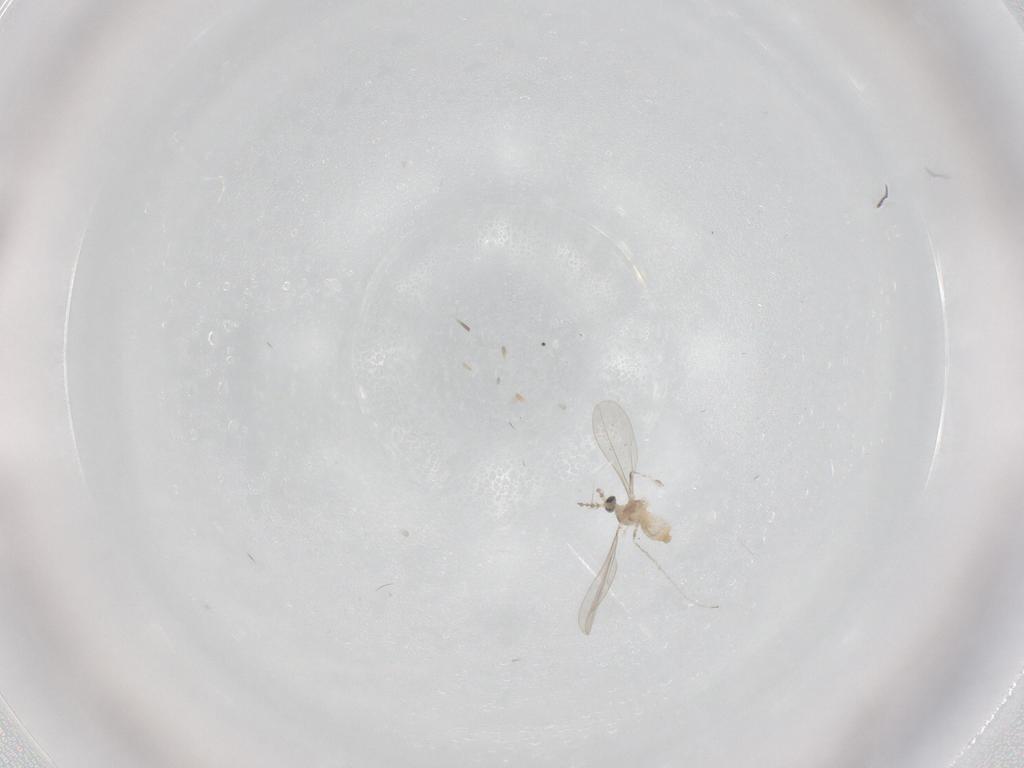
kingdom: Animalia
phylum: Arthropoda
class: Insecta
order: Diptera
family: Cecidomyiidae
